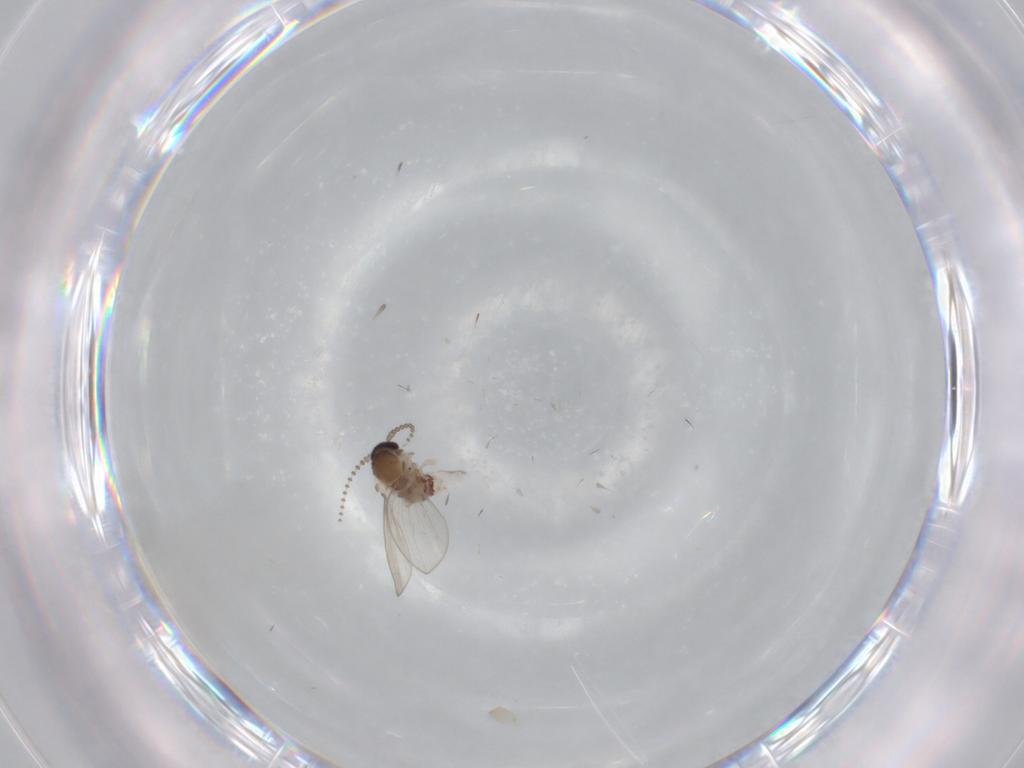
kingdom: Animalia
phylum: Arthropoda
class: Insecta
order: Diptera
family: Psychodidae
